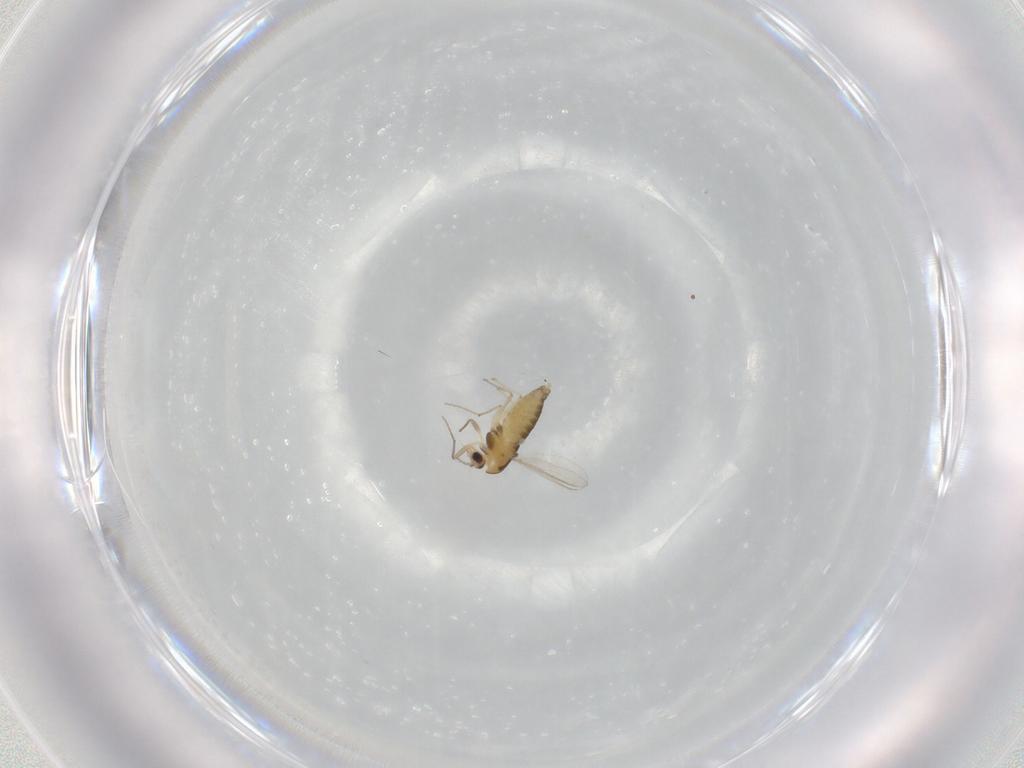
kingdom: Animalia
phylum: Arthropoda
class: Insecta
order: Diptera
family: Chironomidae
